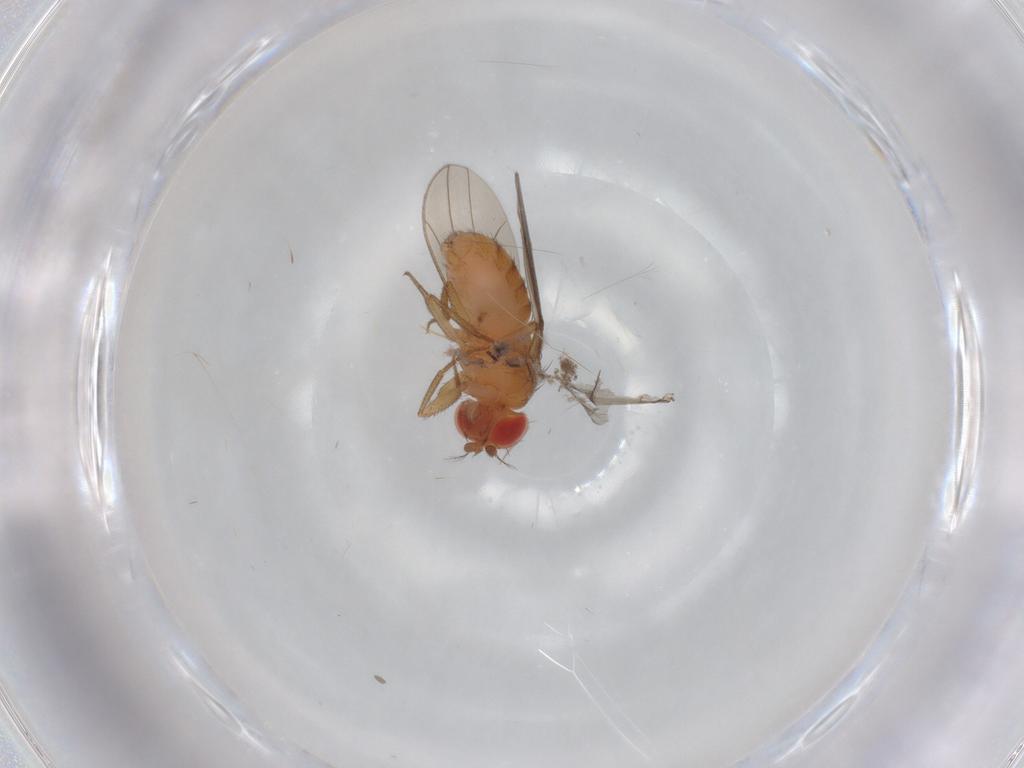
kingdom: Animalia
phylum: Arthropoda
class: Insecta
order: Diptera
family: Drosophilidae
